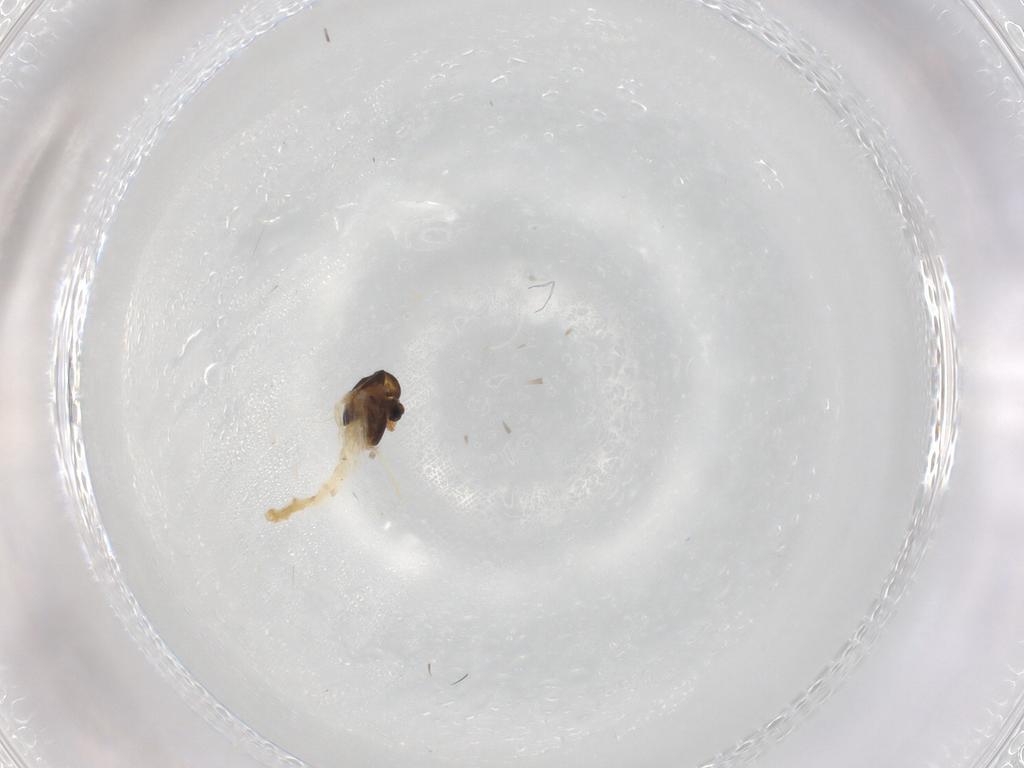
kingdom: Animalia
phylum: Arthropoda
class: Insecta
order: Diptera
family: Chironomidae
